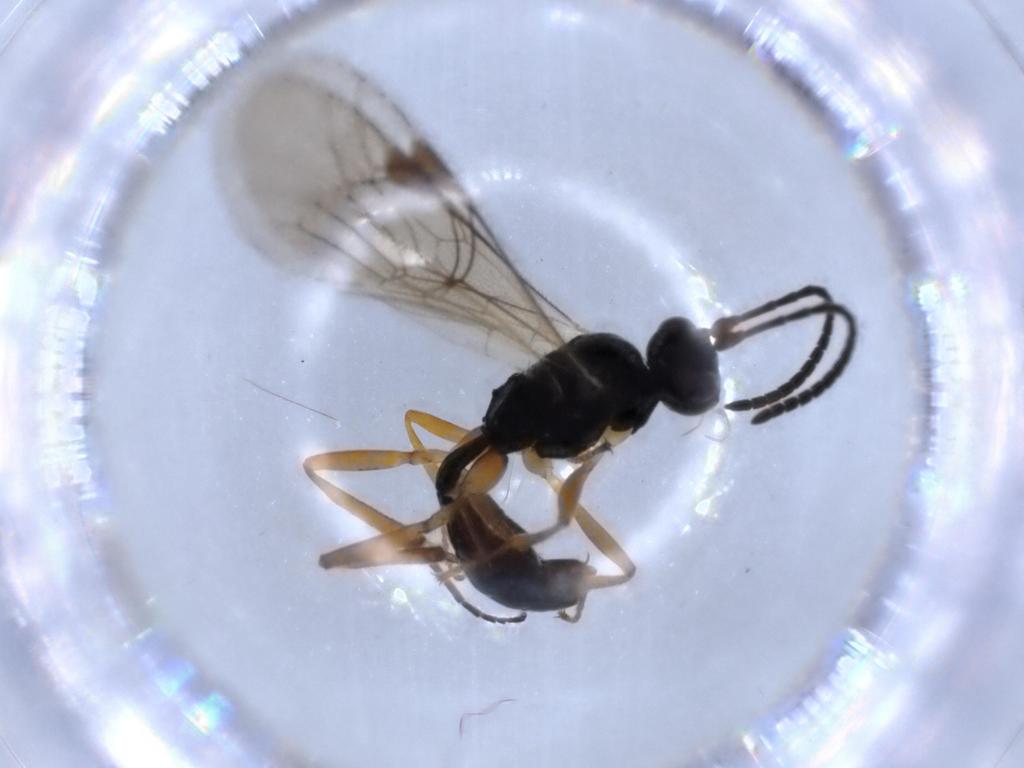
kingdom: Animalia
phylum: Arthropoda
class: Insecta
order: Hymenoptera
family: Ichneumonidae
